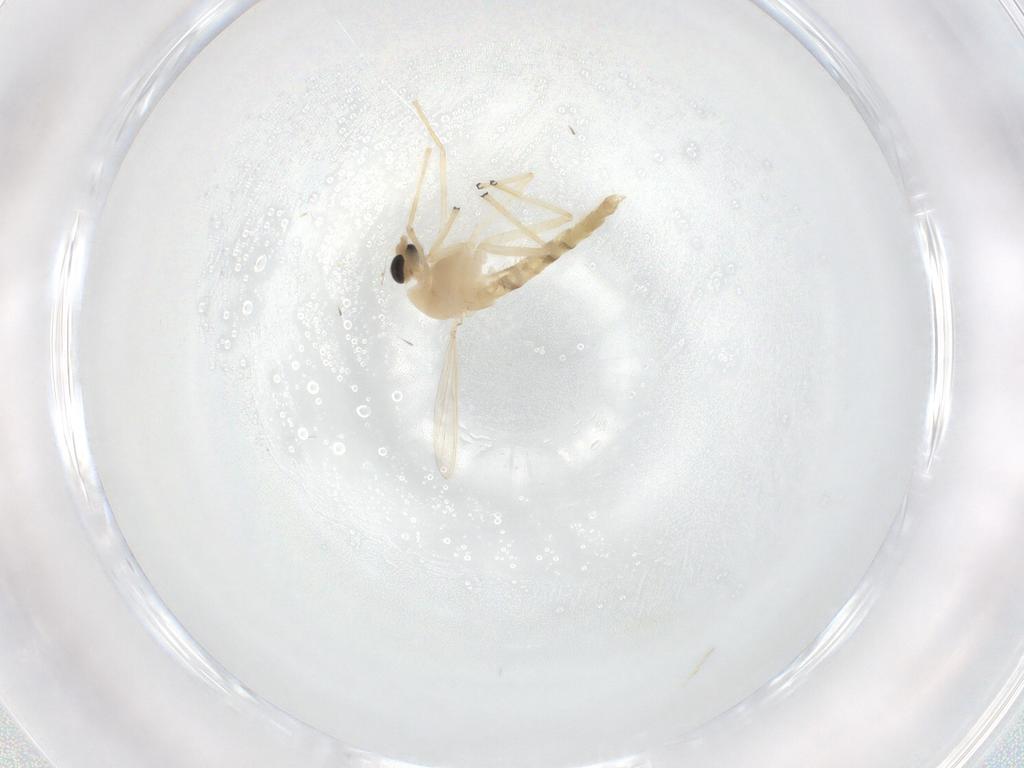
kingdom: Animalia
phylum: Arthropoda
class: Insecta
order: Diptera
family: Chironomidae
